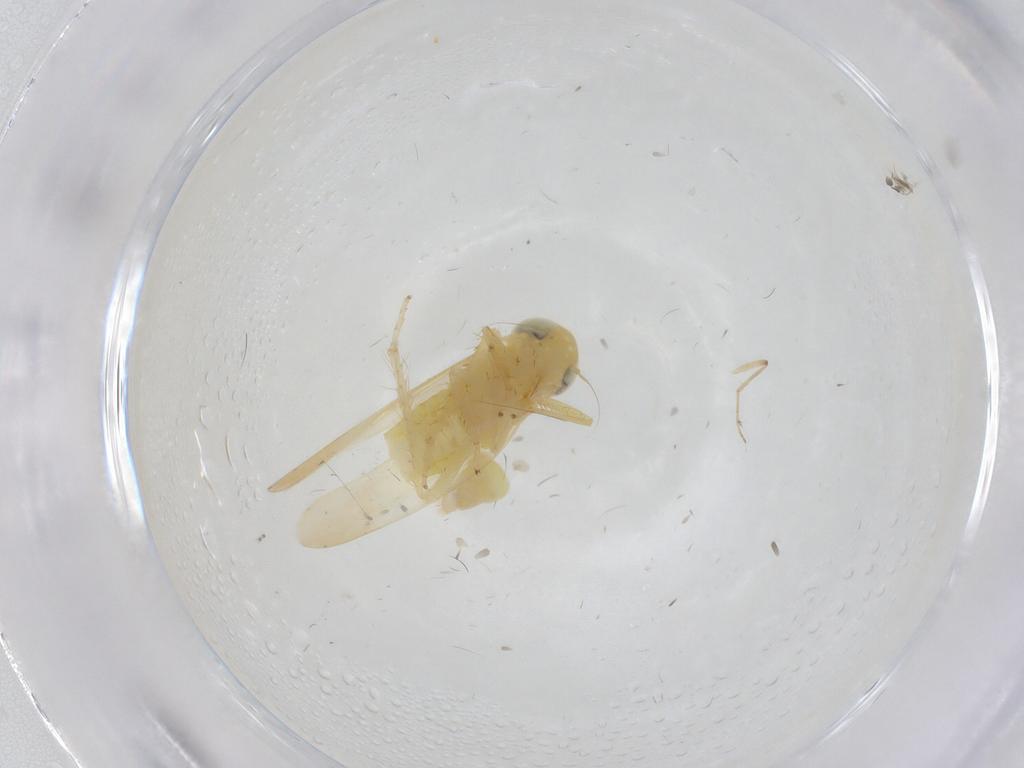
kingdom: Animalia
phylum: Arthropoda
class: Insecta
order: Hemiptera
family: Cicadellidae
